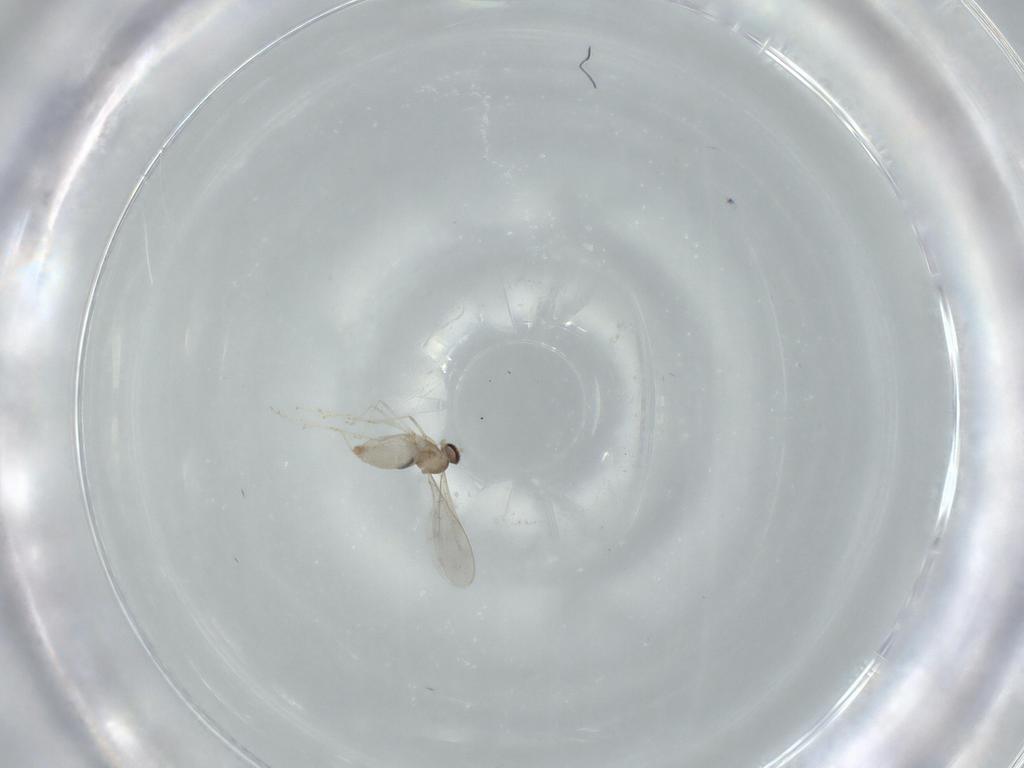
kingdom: Animalia
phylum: Arthropoda
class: Insecta
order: Diptera
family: Cecidomyiidae
